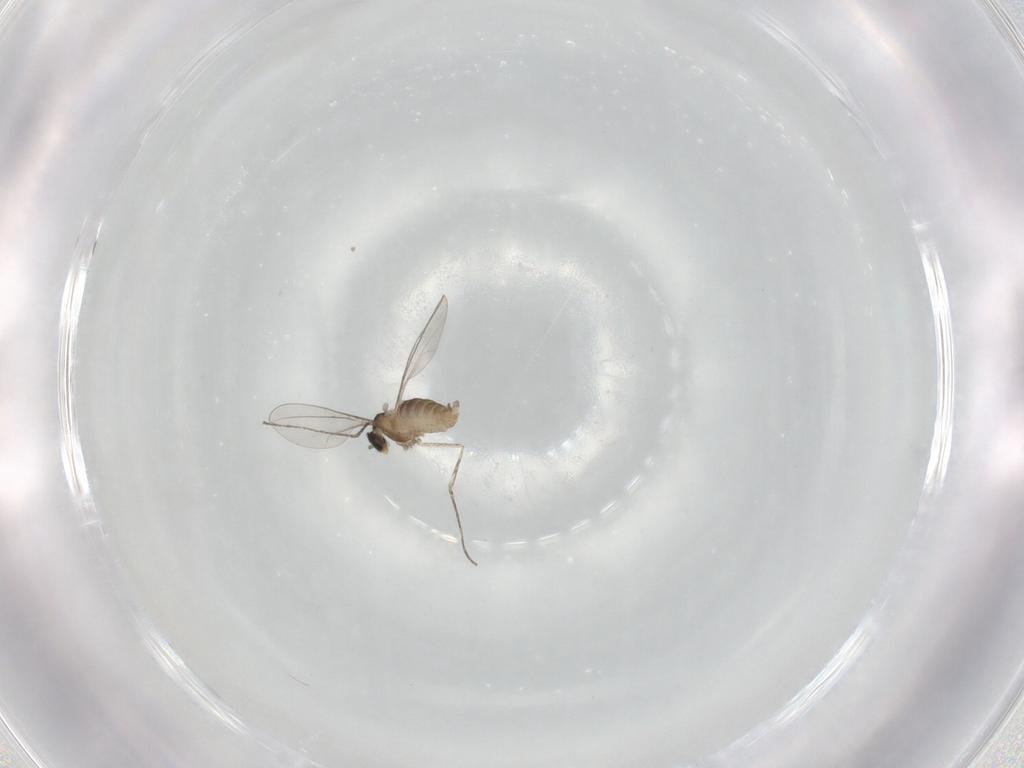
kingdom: Animalia
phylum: Arthropoda
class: Insecta
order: Diptera
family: Cecidomyiidae
